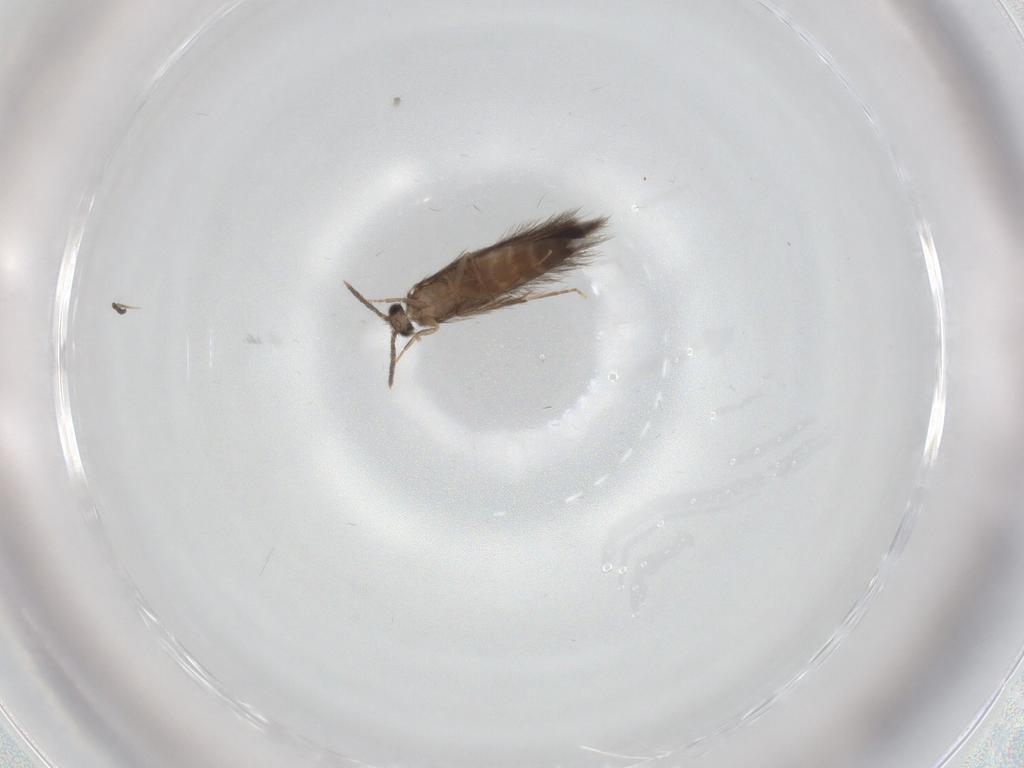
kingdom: Animalia
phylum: Arthropoda
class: Insecta
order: Trichoptera
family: Hydroptilidae
